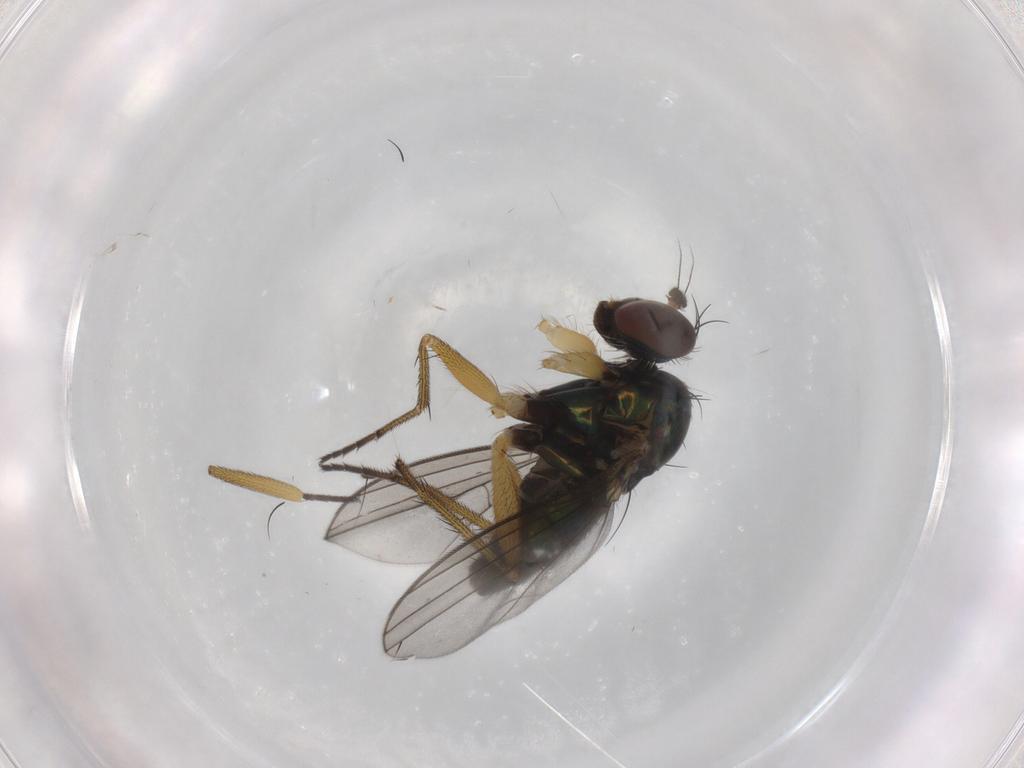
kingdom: Animalia
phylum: Arthropoda
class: Insecta
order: Diptera
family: Dolichopodidae
